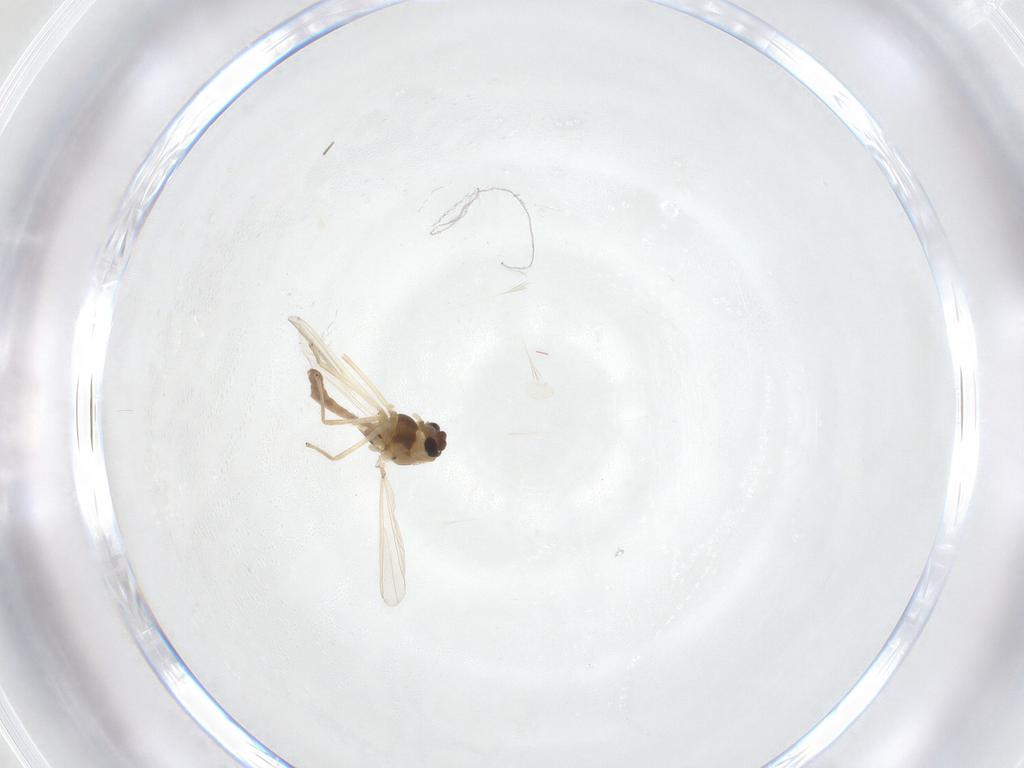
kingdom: Animalia
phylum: Arthropoda
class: Insecta
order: Diptera
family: Chironomidae
